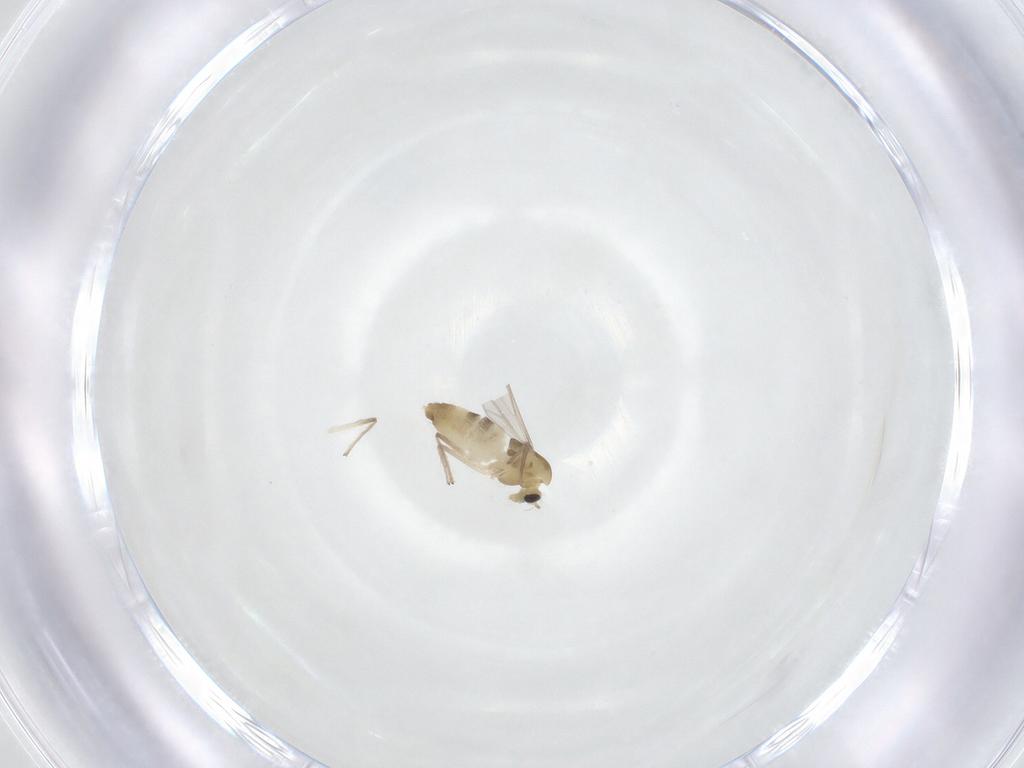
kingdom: Animalia
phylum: Arthropoda
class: Insecta
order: Diptera
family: Chironomidae
